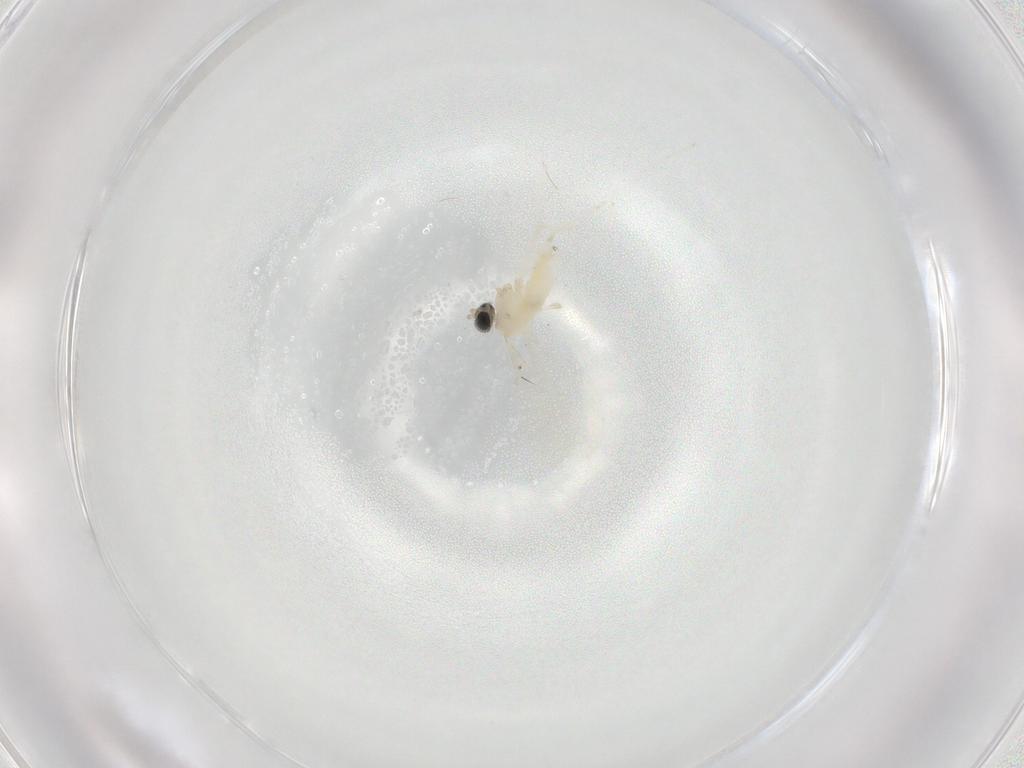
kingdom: Animalia
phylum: Arthropoda
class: Insecta
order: Diptera
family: Cecidomyiidae
